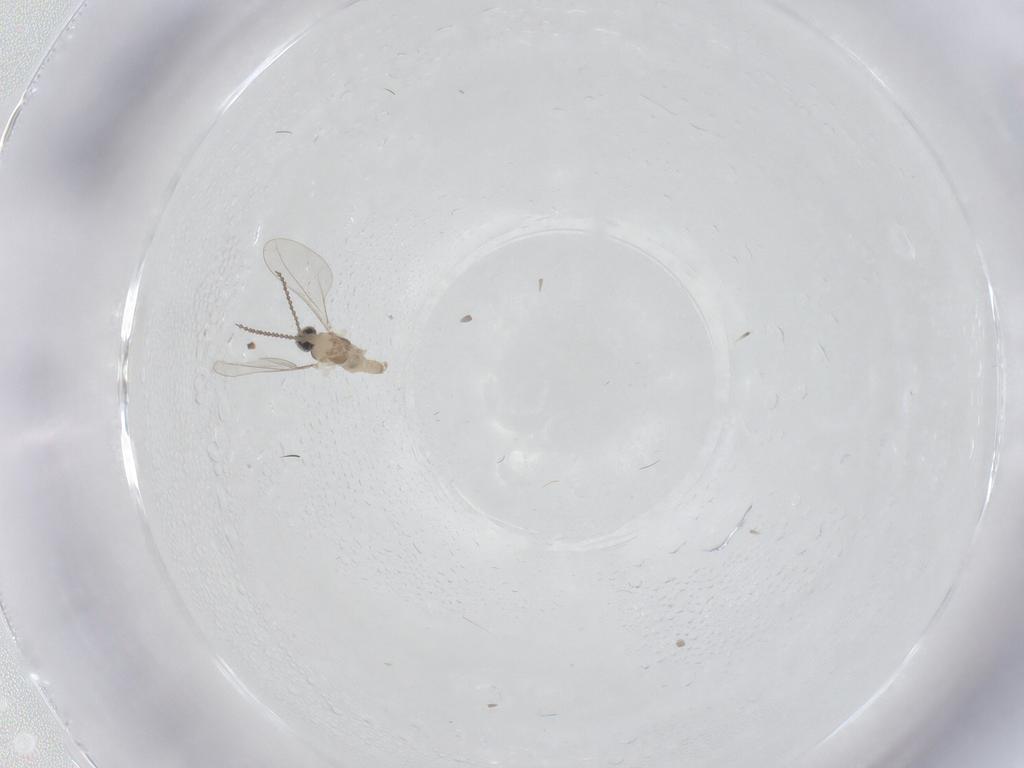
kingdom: Animalia
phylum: Arthropoda
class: Insecta
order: Diptera
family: Cecidomyiidae
